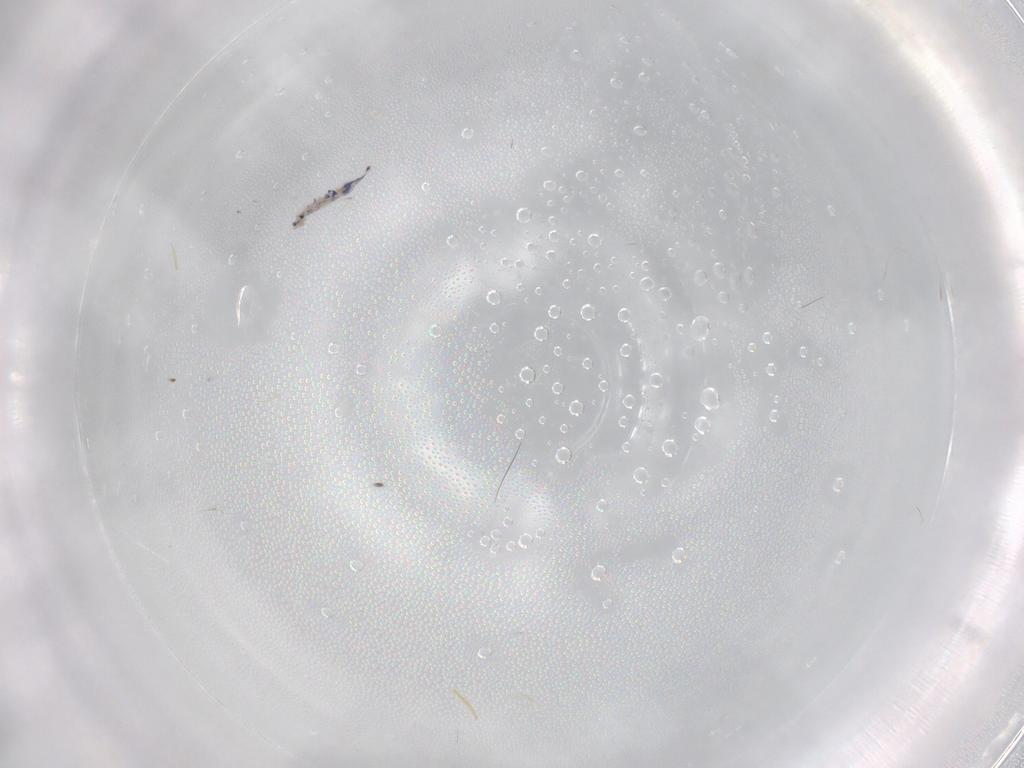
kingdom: Animalia
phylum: Arthropoda
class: Collembola
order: Entomobryomorpha
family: Entomobryidae
